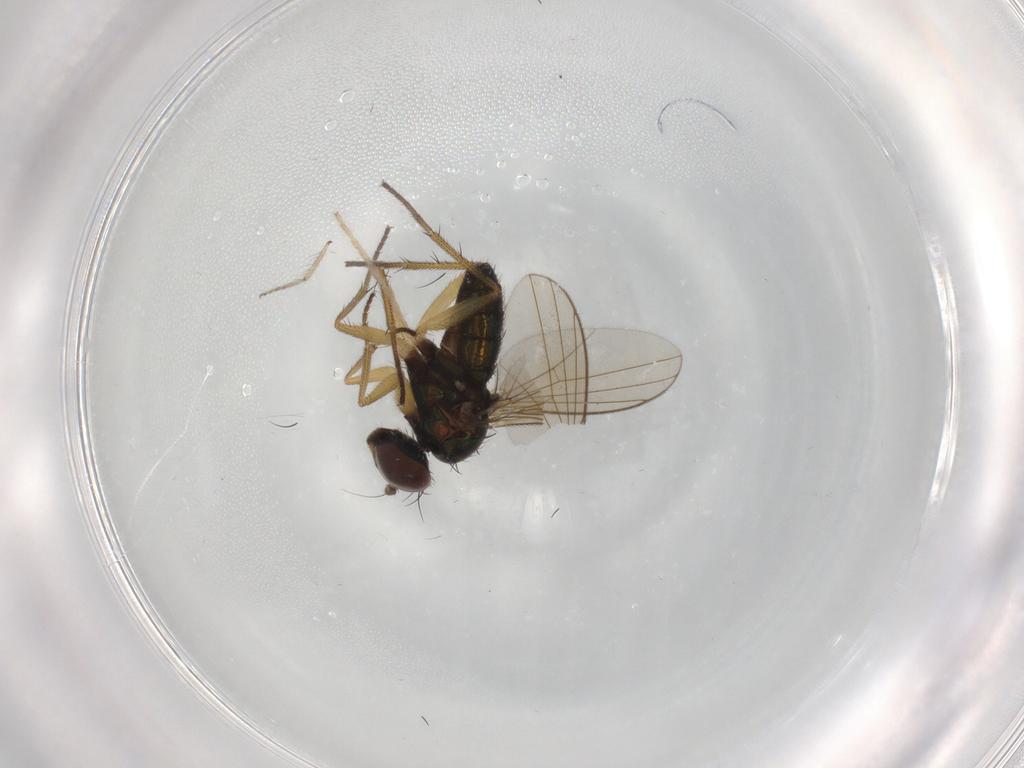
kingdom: Animalia
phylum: Arthropoda
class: Insecta
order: Diptera
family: Chironomidae
